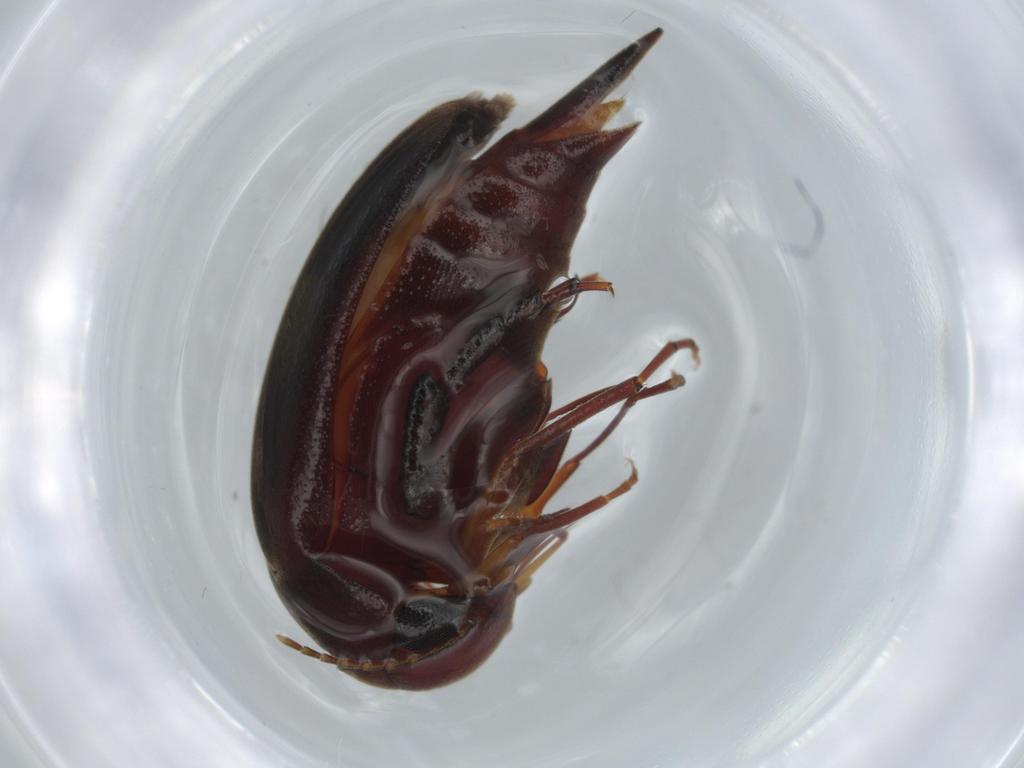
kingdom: Animalia
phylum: Arthropoda
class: Insecta
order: Coleoptera
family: Mordellidae
